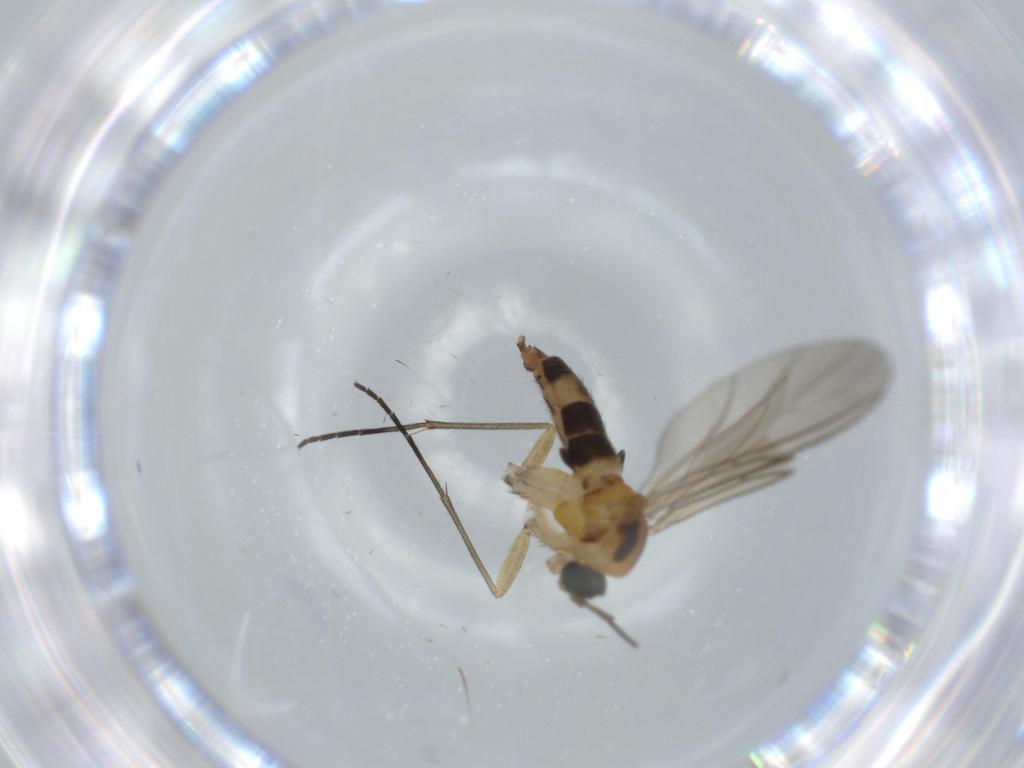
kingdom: Animalia
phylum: Arthropoda
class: Insecta
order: Diptera
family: Sciaridae
